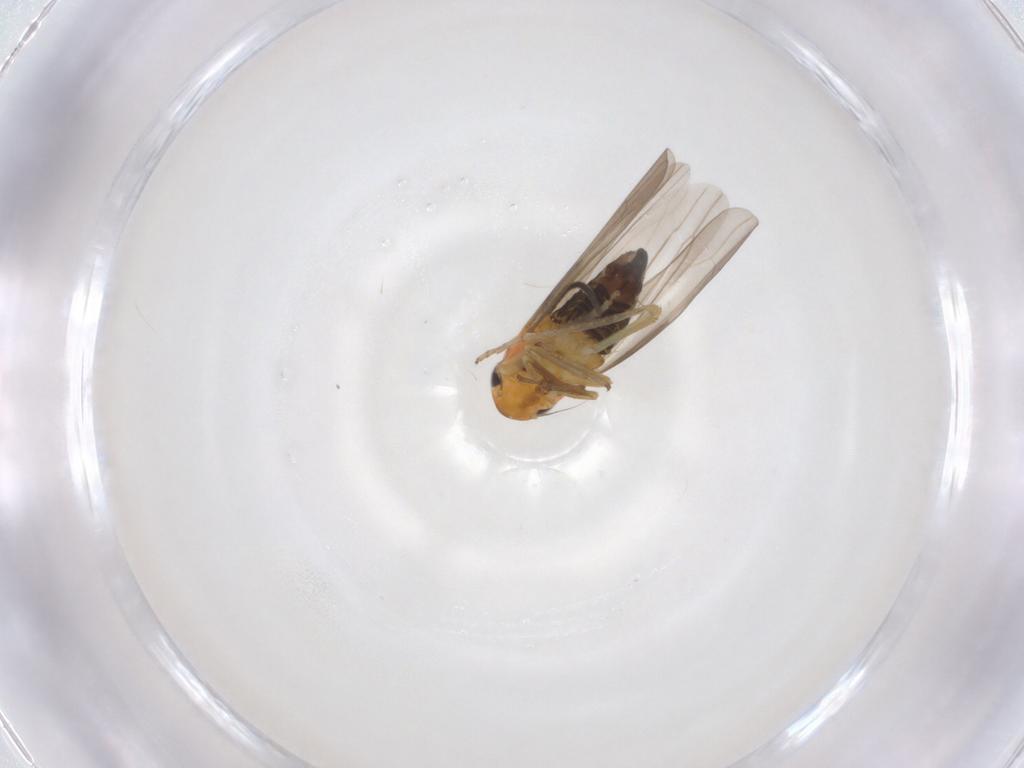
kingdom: Animalia
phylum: Arthropoda
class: Insecta
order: Hemiptera
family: Cicadellidae
